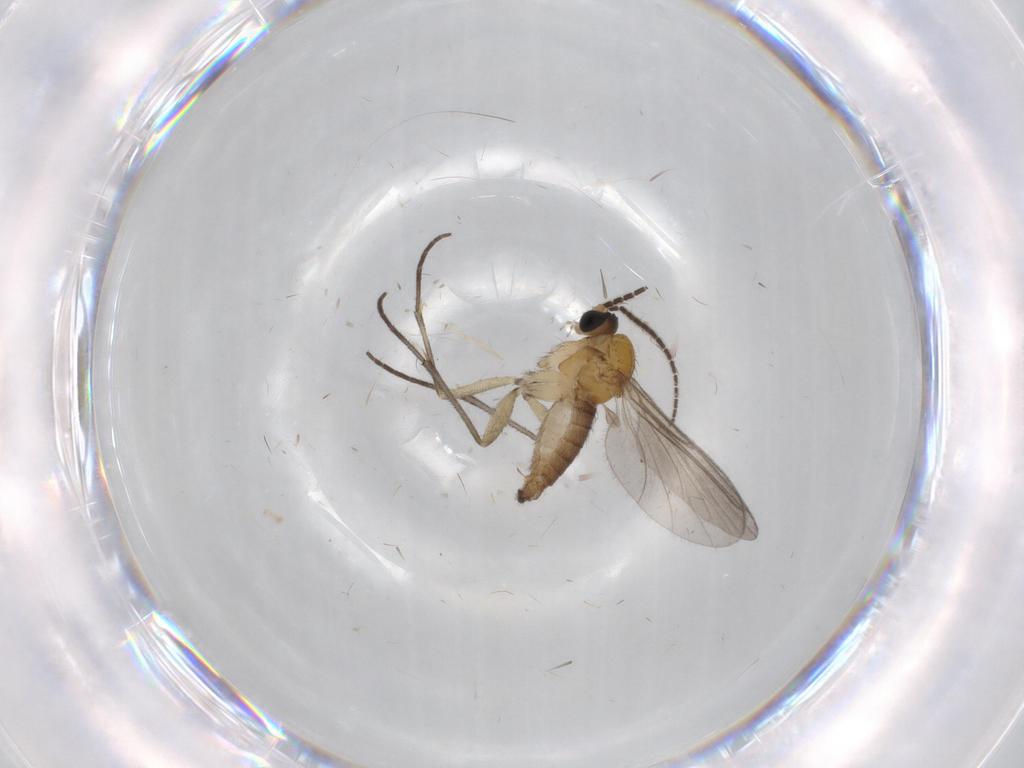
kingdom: Animalia
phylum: Arthropoda
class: Insecta
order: Diptera
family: Sciaridae
